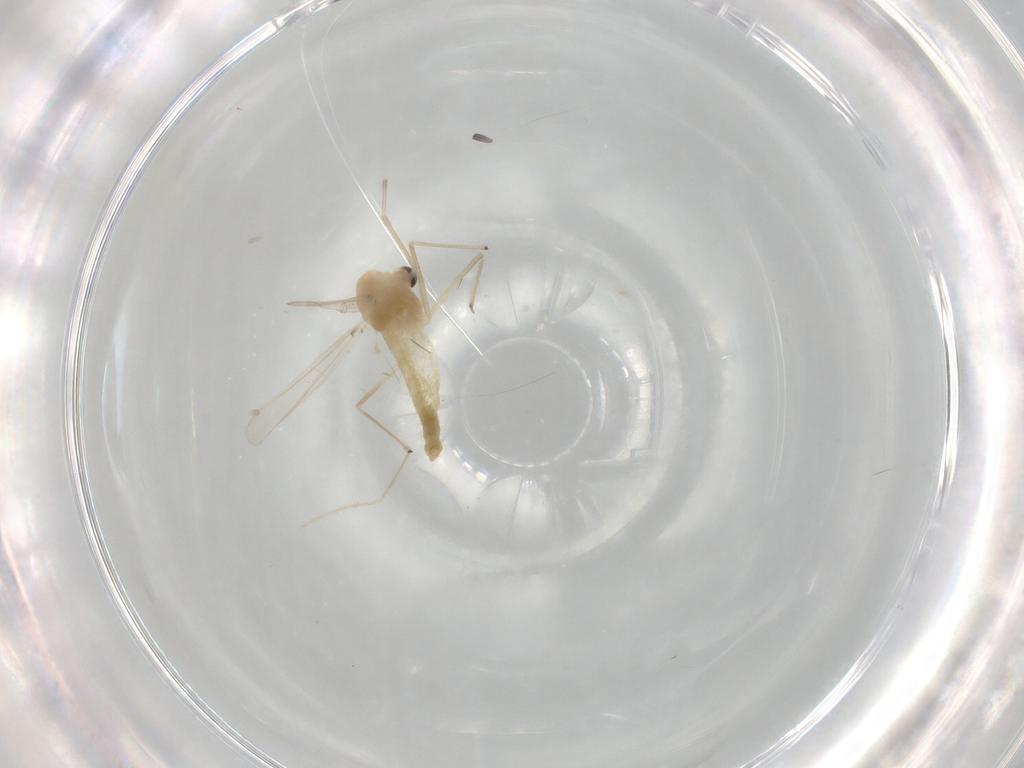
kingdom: Animalia
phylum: Arthropoda
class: Insecta
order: Diptera
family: Chironomidae
